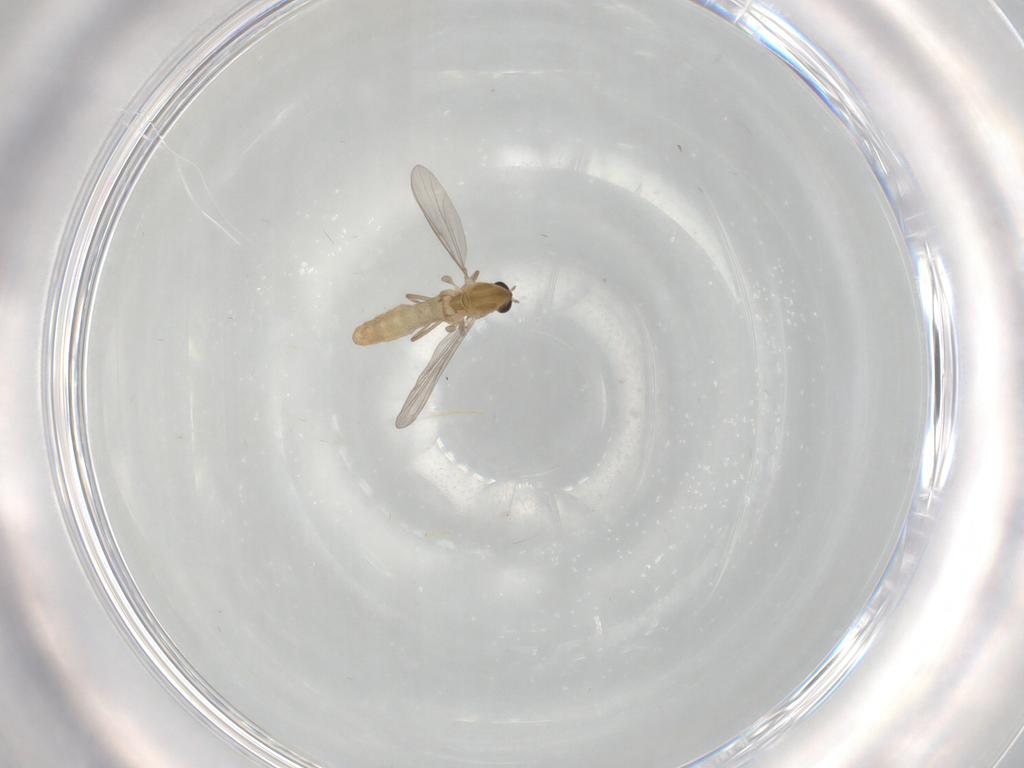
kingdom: Animalia
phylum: Arthropoda
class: Insecta
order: Diptera
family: Chironomidae
